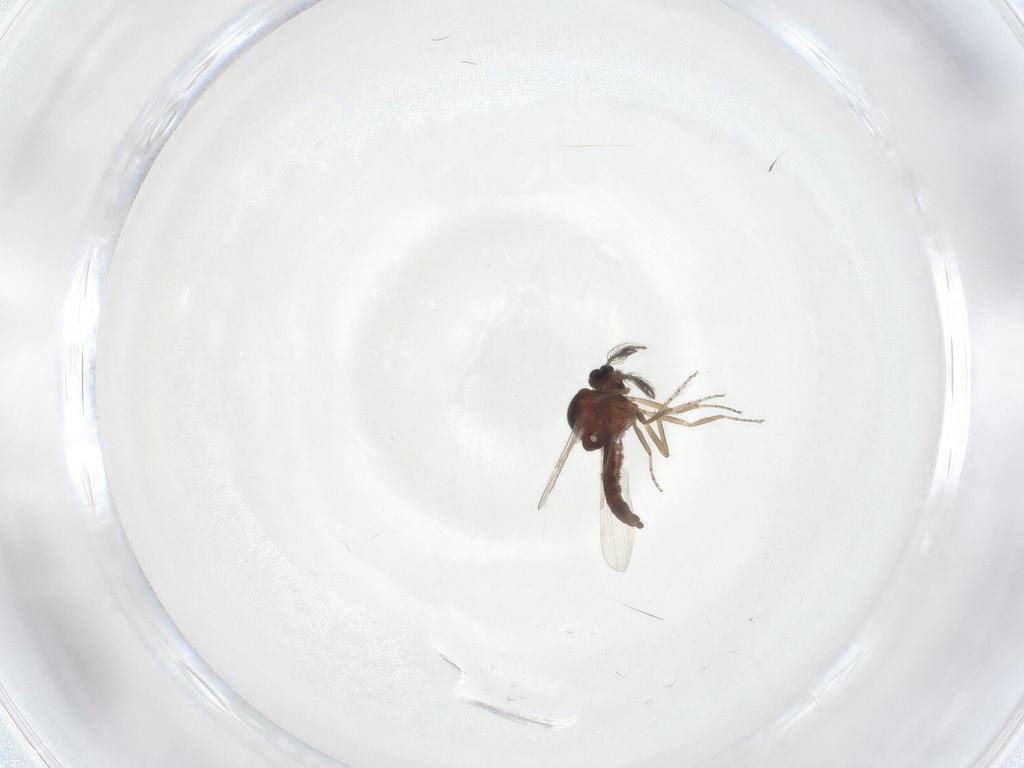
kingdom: Animalia
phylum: Arthropoda
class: Insecta
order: Diptera
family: Ceratopogonidae
